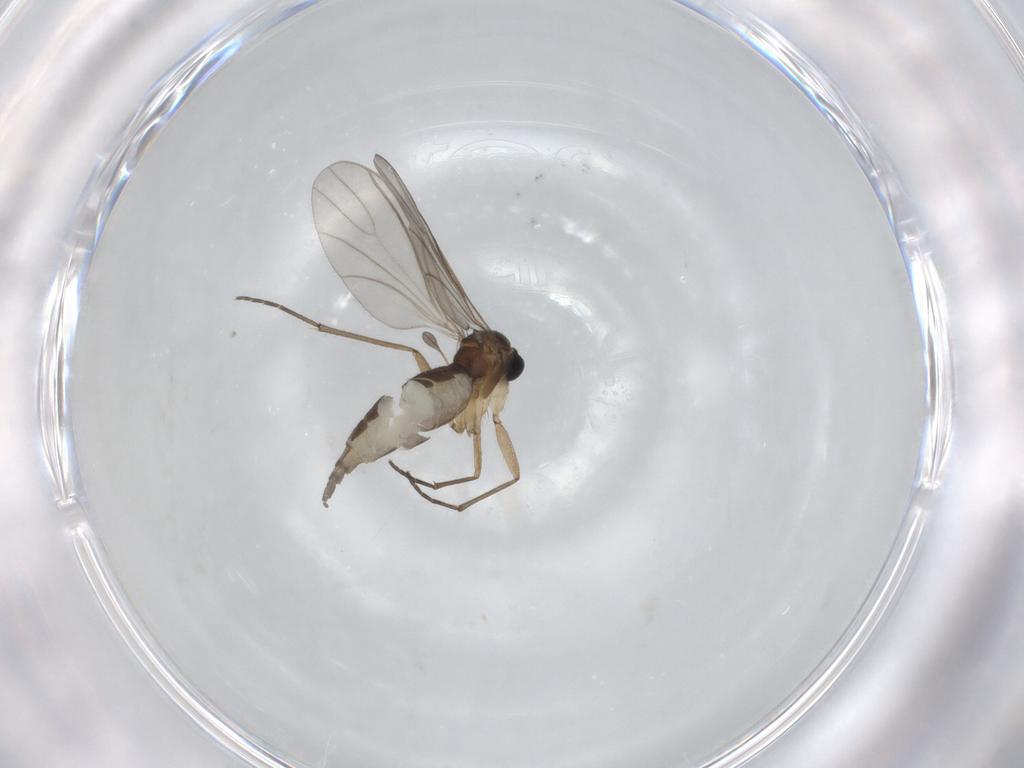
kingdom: Animalia
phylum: Arthropoda
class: Insecta
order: Diptera
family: Sciaridae
